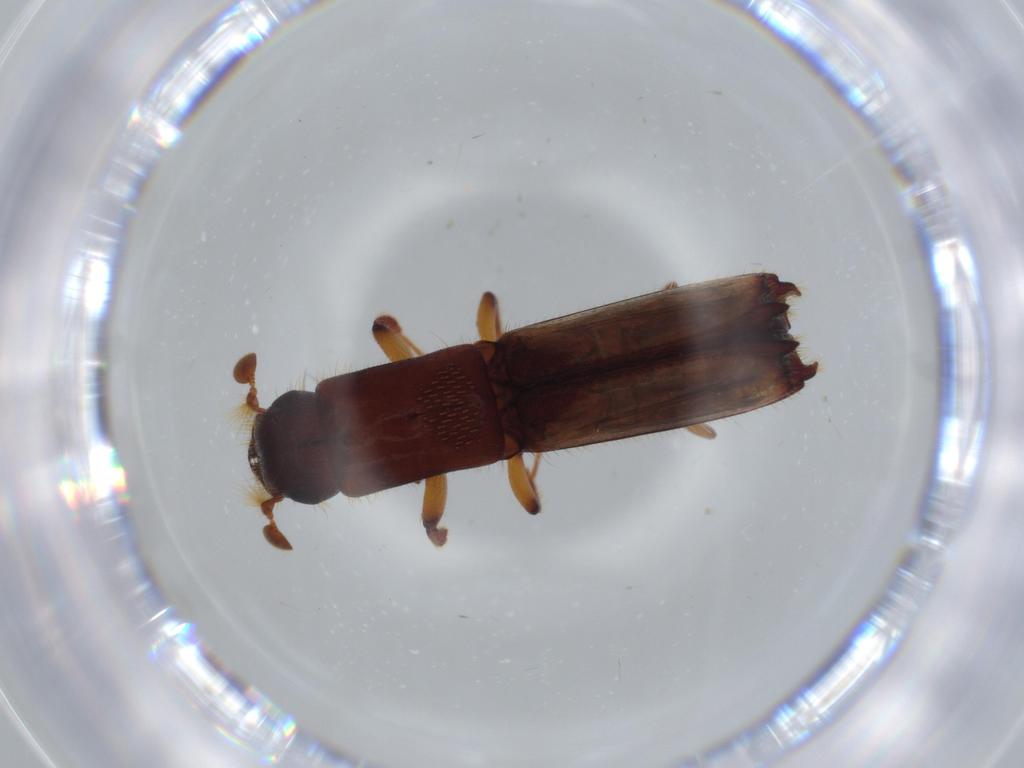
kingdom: Animalia
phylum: Arthropoda
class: Insecta
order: Coleoptera
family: Curculionidae
